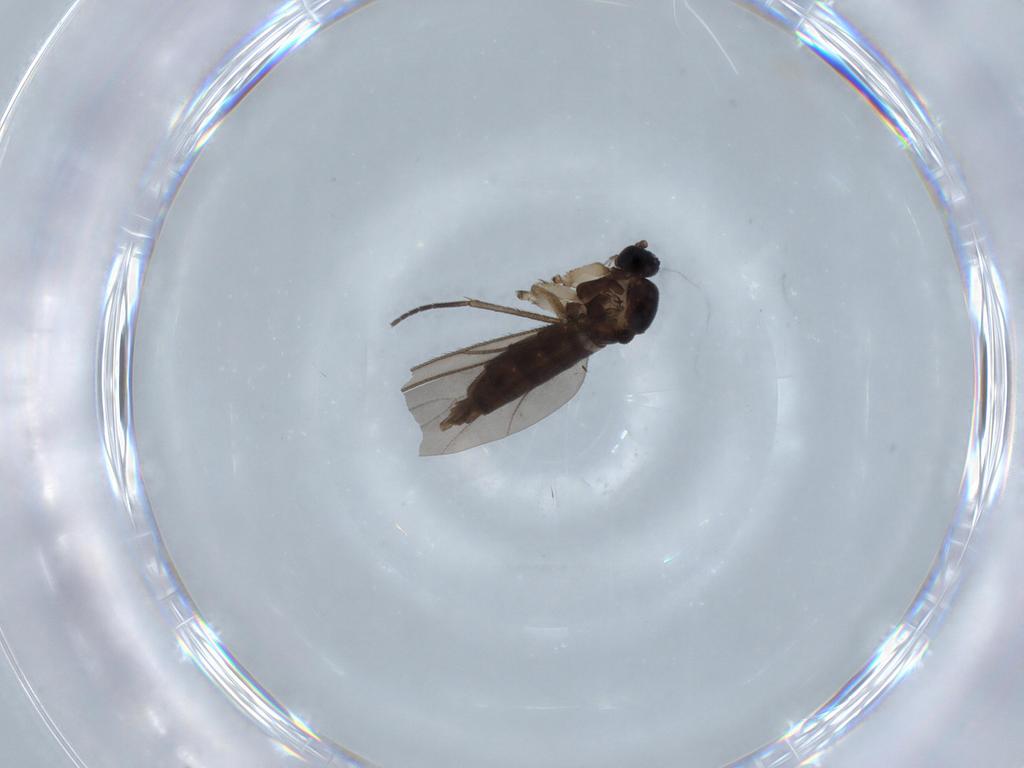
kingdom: Animalia
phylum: Arthropoda
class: Insecta
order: Diptera
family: Sciaridae
